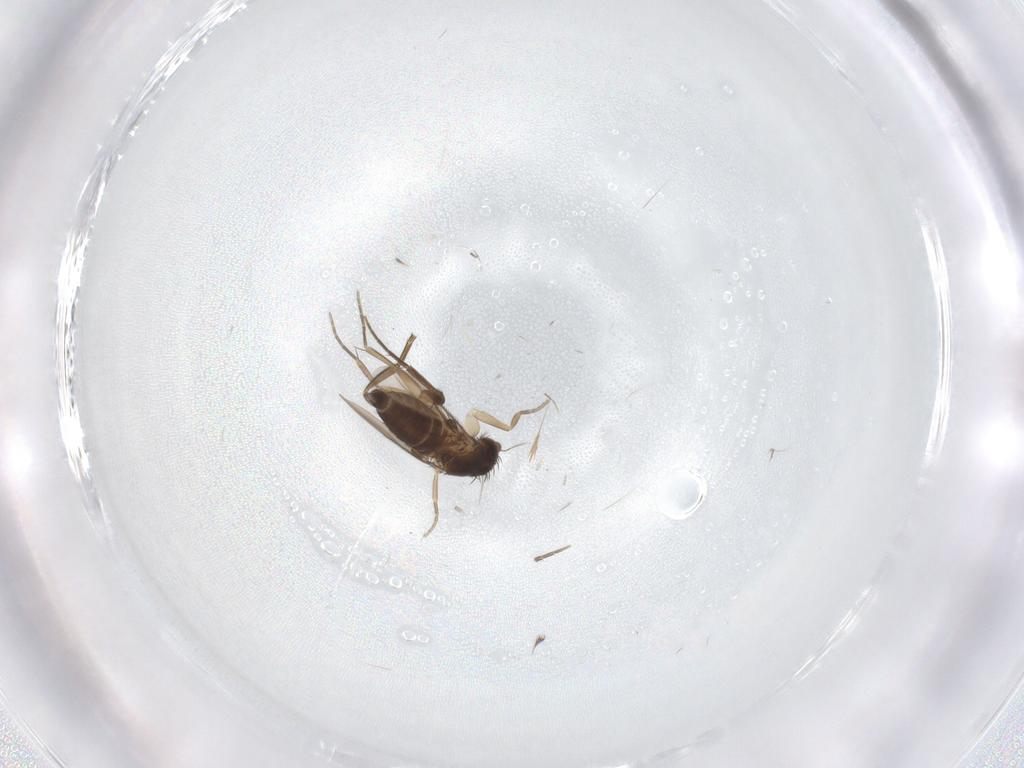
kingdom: Animalia
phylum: Arthropoda
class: Insecta
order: Diptera
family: Phoridae
